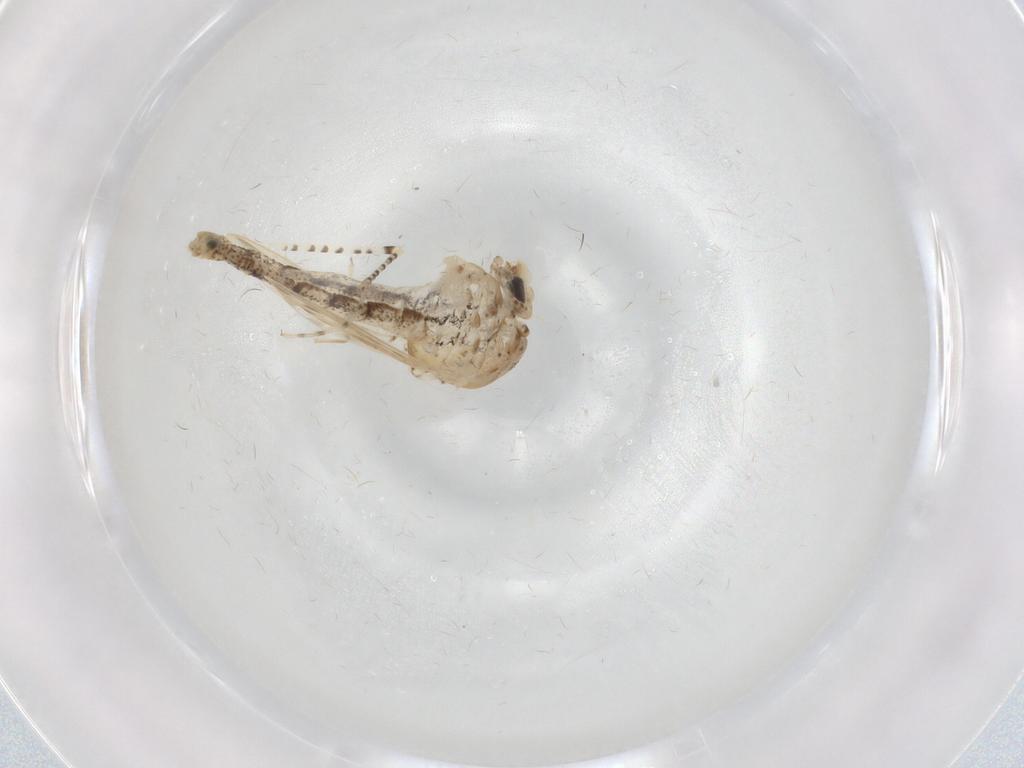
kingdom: Animalia
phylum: Arthropoda
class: Insecta
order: Diptera
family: Chaoboridae
